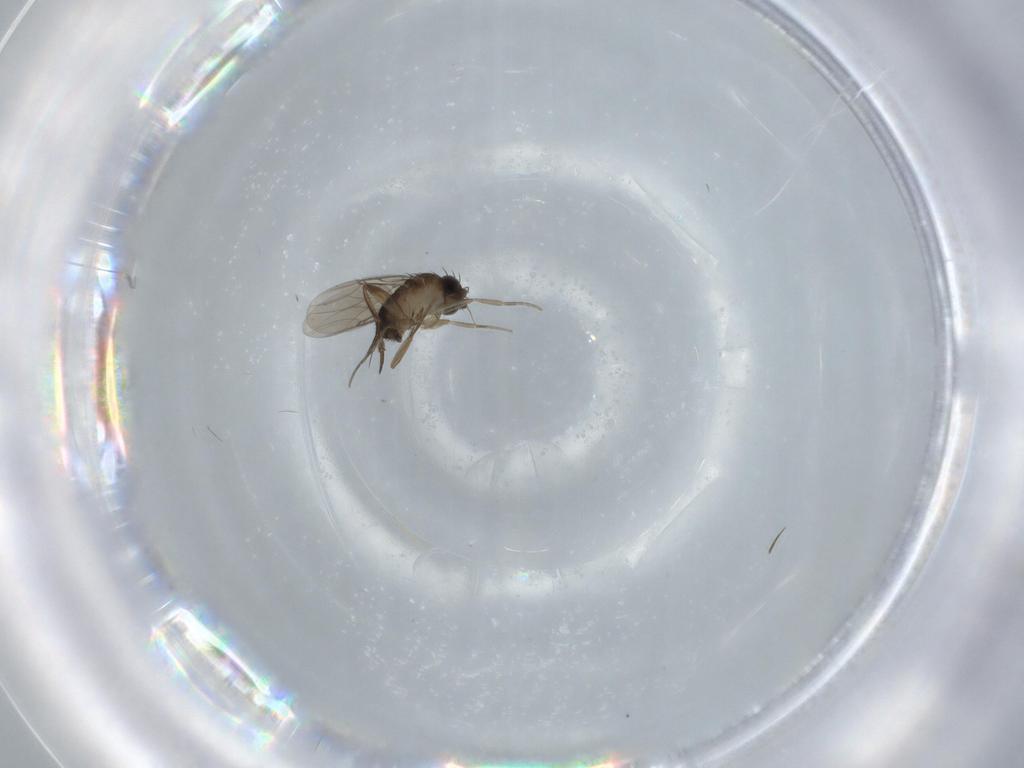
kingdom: Animalia
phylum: Arthropoda
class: Insecta
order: Diptera
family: Phoridae
